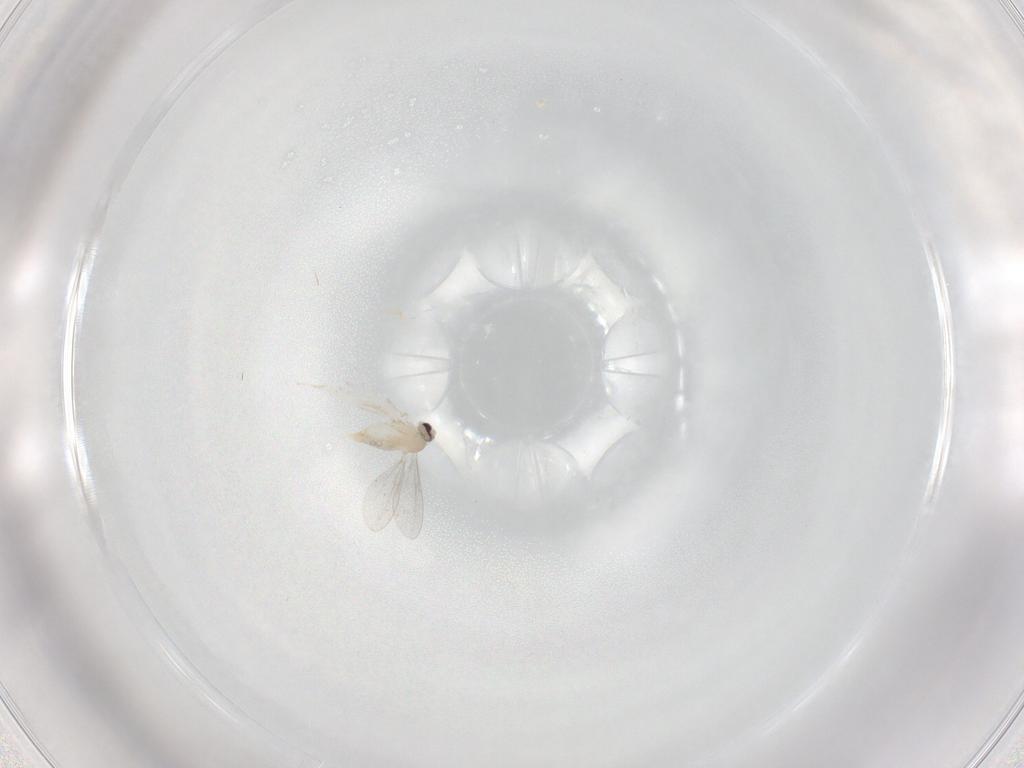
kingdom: Animalia
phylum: Arthropoda
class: Insecta
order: Diptera
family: Cecidomyiidae
